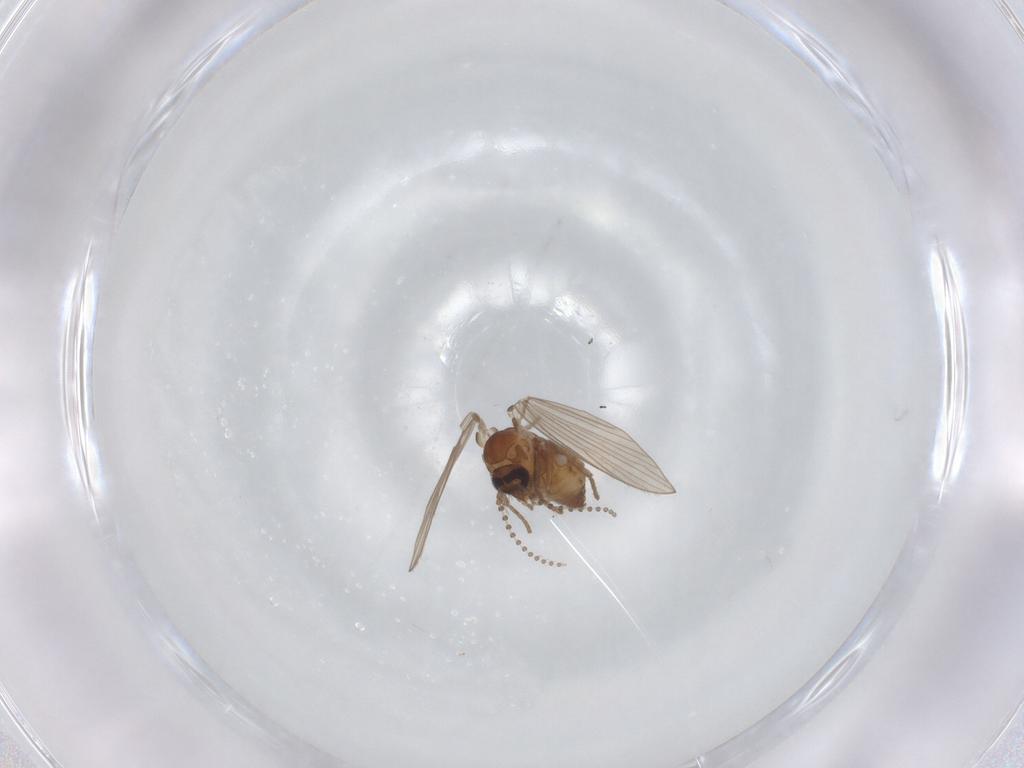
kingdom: Animalia
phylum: Arthropoda
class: Insecta
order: Diptera
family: Psychodidae
